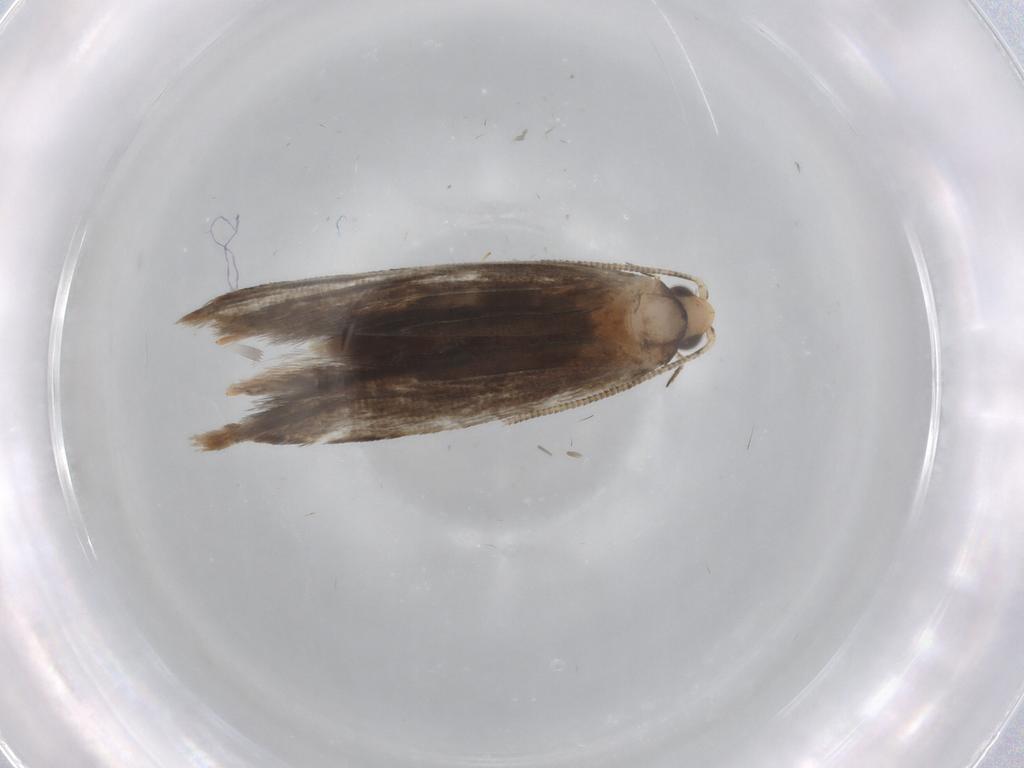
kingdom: Animalia
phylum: Arthropoda
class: Insecta
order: Lepidoptera
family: Tineidae
